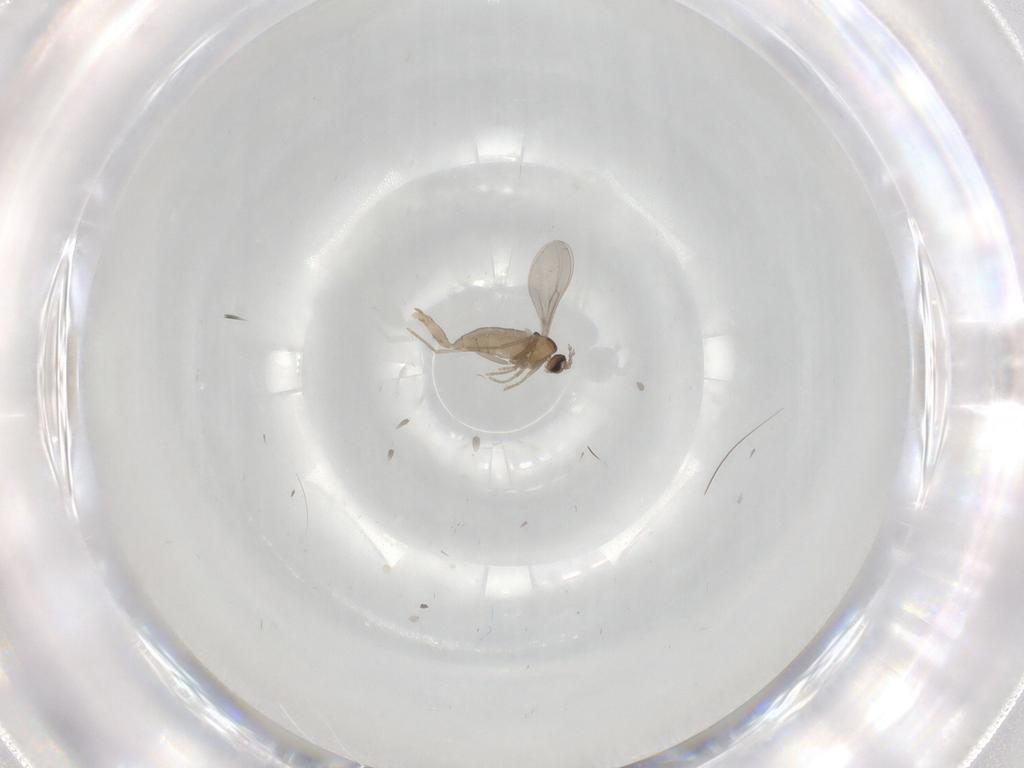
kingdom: Animalia
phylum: Arthropoda
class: Insecta
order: Diptera
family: Cecidomyiidae
